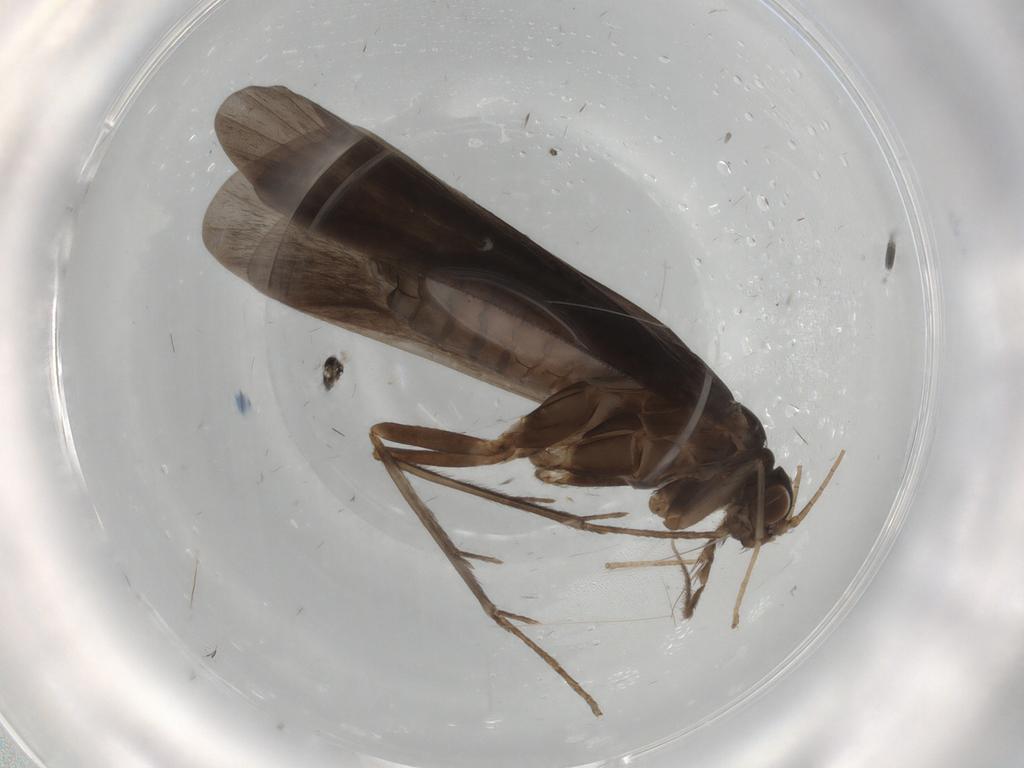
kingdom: Animalia
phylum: Arthropoda
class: Insecta
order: Trichoptera
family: Hydropsychidae
